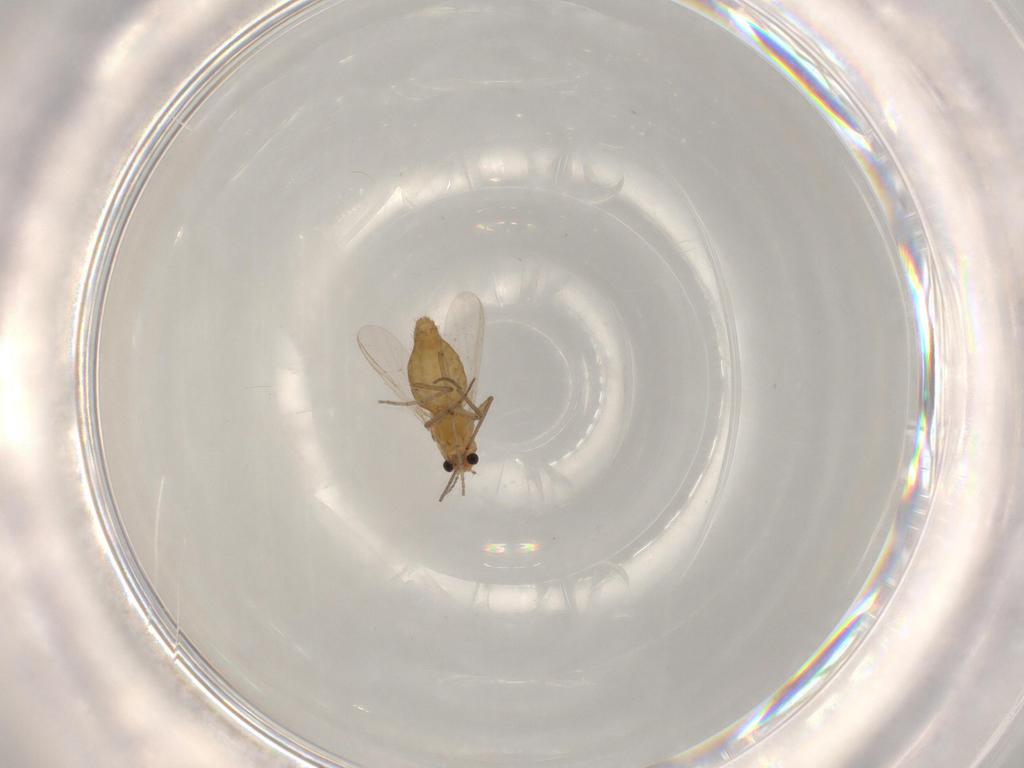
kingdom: Animalia
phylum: Arthropoda
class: Insecta
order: Diptera
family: Chironomidae
